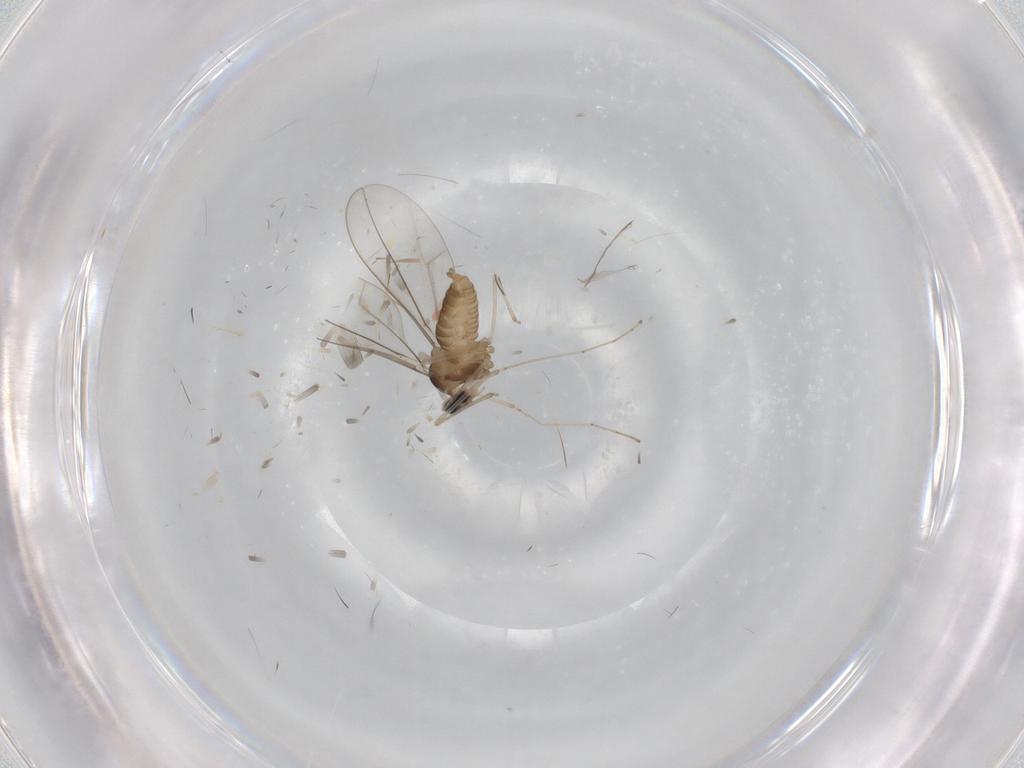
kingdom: Animalia
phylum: Arthropoda
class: Insecta
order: Diptera
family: Cecidomyiidae
